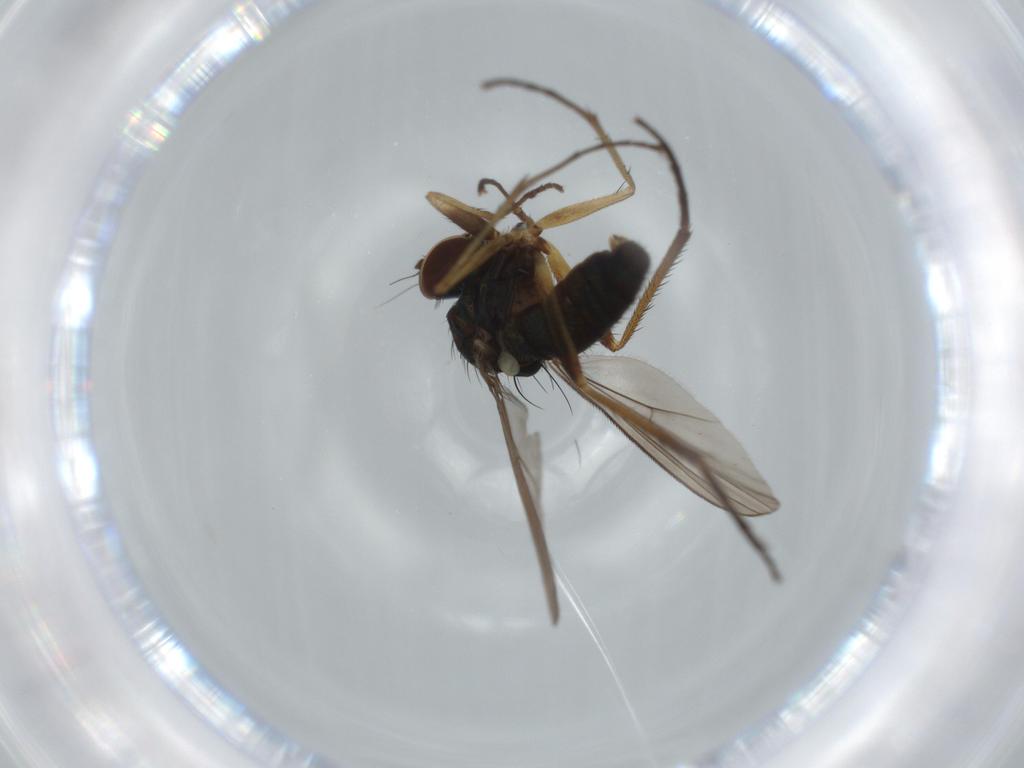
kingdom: Animalia
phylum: Arthropoda
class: Insecta
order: Diptera
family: Dolichopodidae
